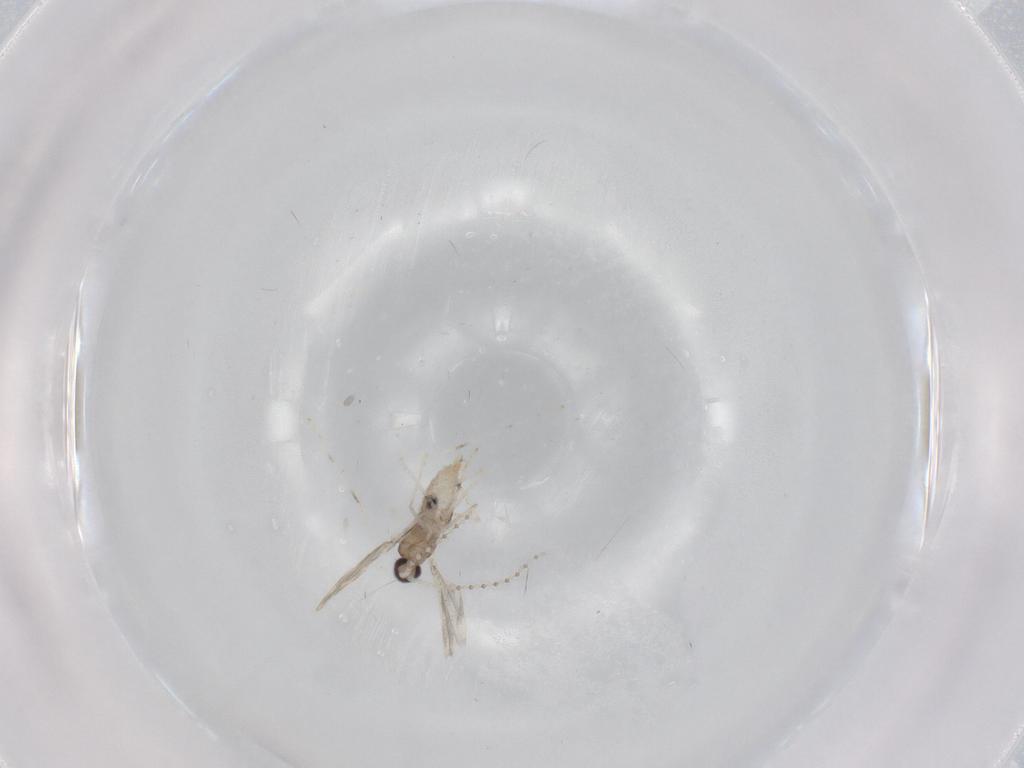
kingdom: Animalia
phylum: Arthropoda
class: Insecta
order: Diptera
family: Cecidomyiidae
